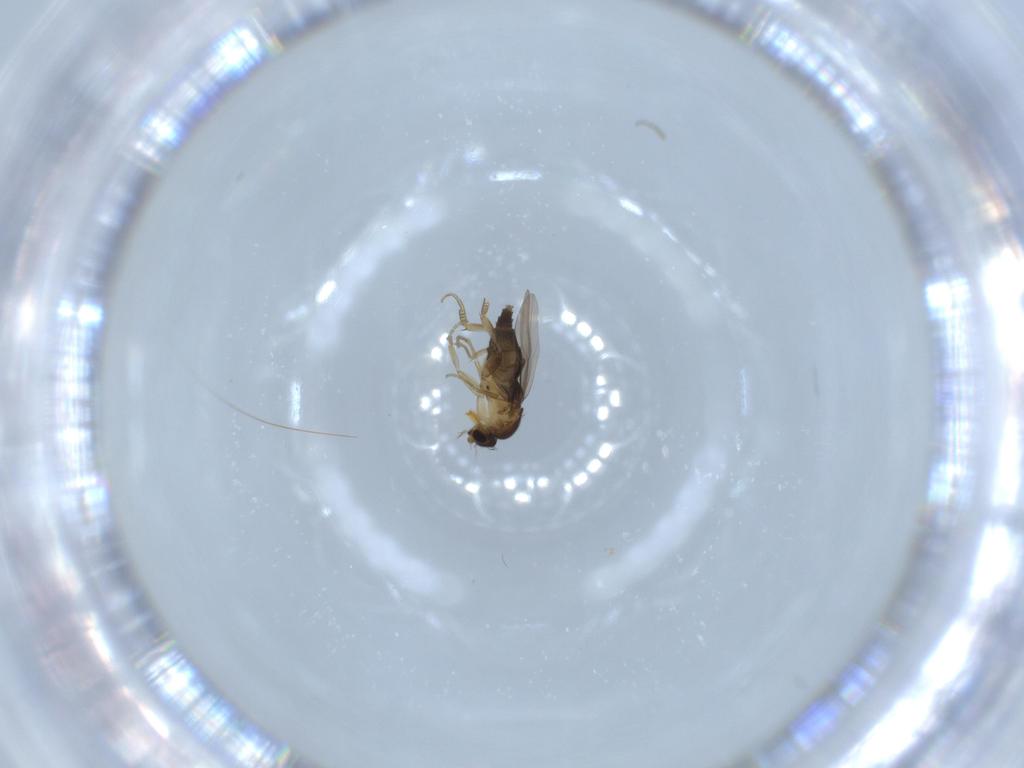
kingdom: Animalia
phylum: Arthropoda
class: Insecta
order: Diptera
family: Phoridae
